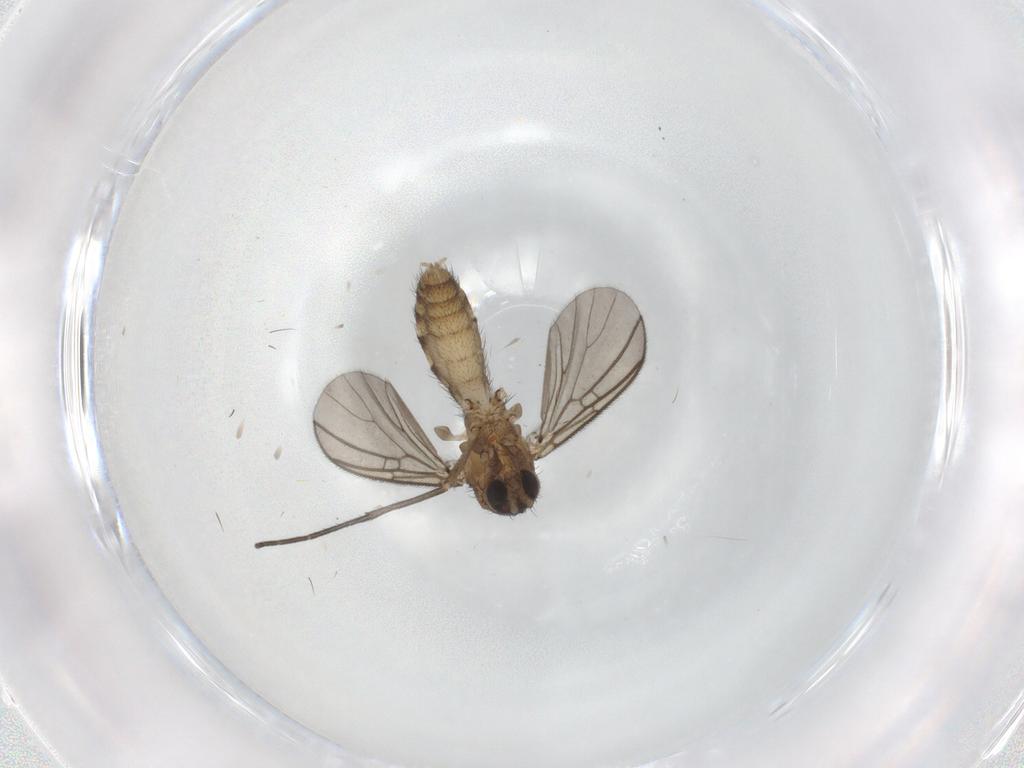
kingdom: Animalia
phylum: Arthropoda
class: Insecta
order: Diptera
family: Mycetophilidae
